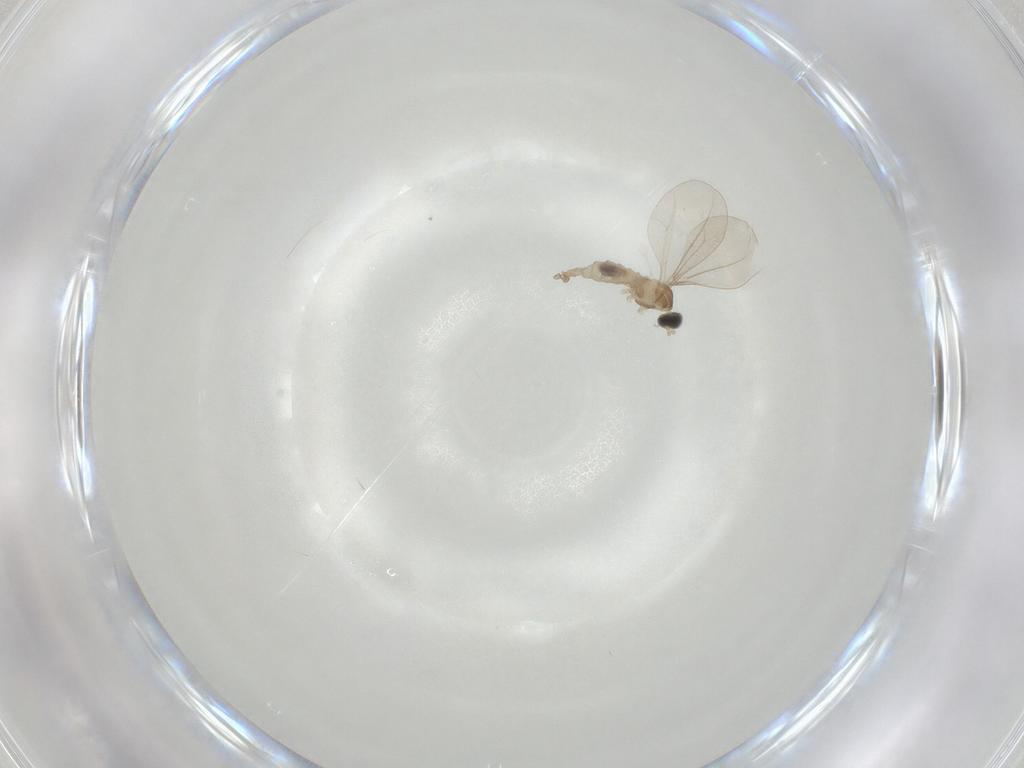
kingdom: Animalia
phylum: Arthropoda
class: Insecta
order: Diptera
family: Cecidomyiidae
